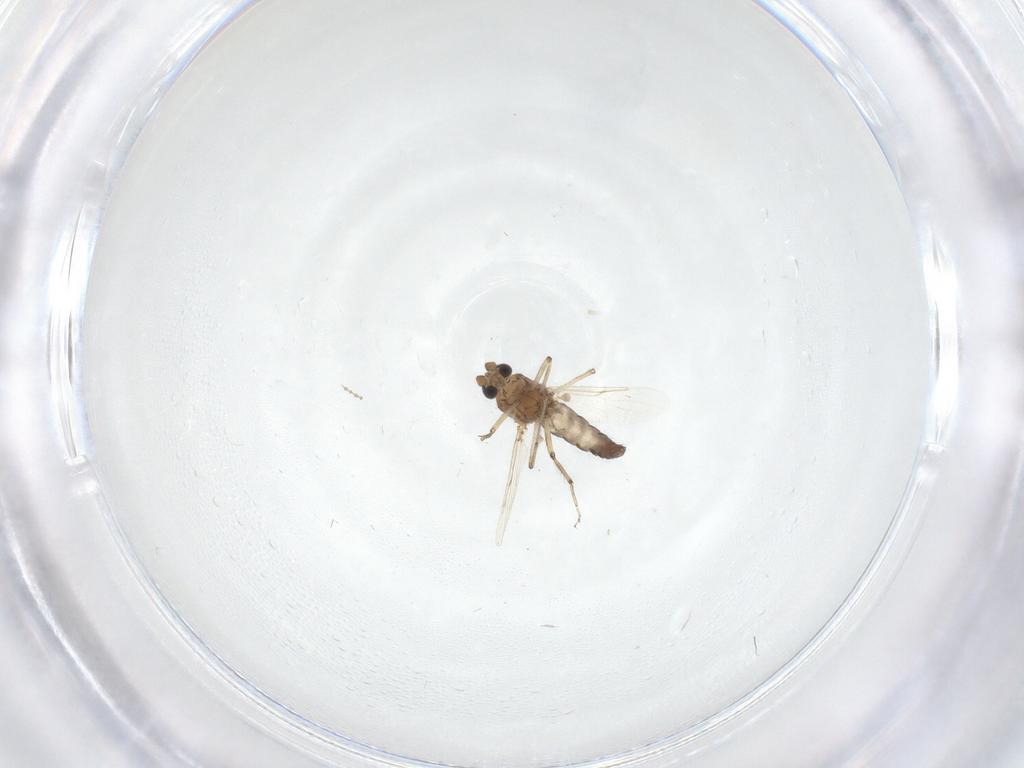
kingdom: Animalia
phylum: Arthropoda
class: Insecta
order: Diptera
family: Ceratopogonidae
